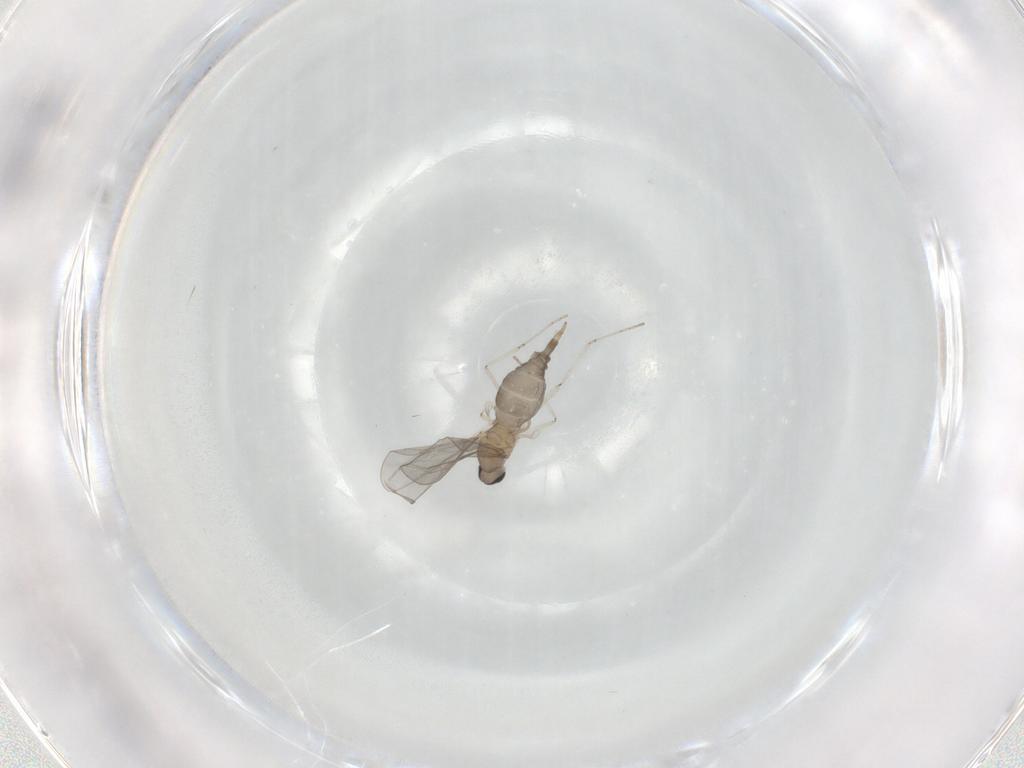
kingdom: Animalia
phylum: Arthropoda
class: Insecta
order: Diptera
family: Cecidomyiidae
